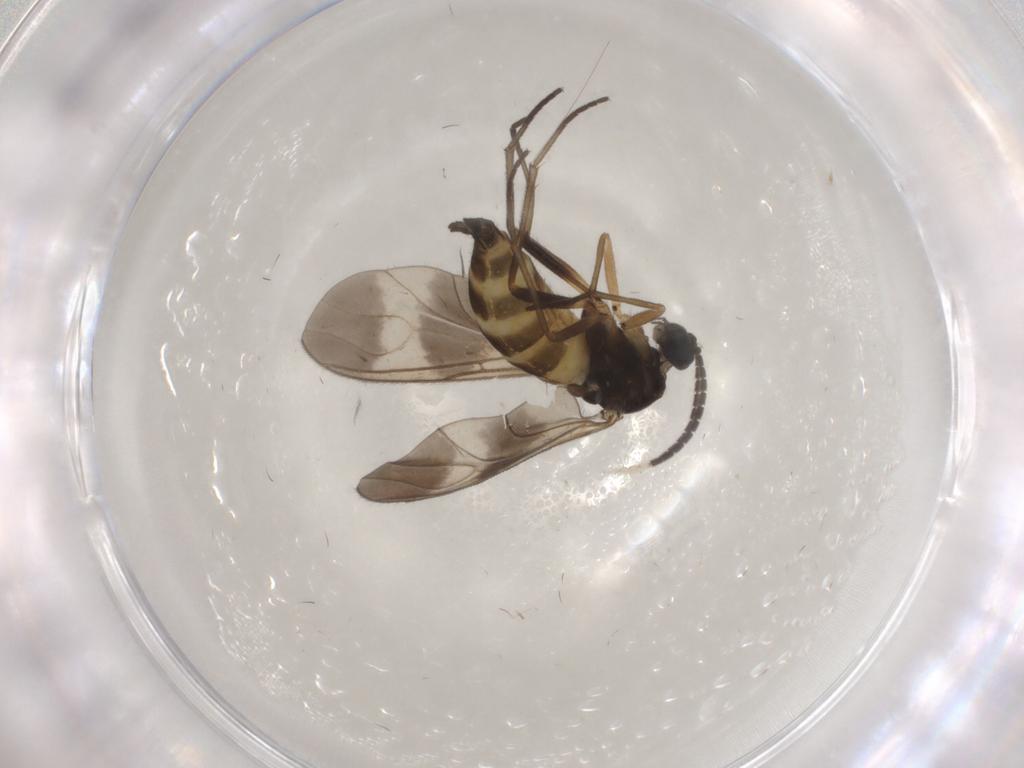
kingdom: Animalia
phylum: Arthropoda
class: Insecta
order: Diptera
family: Sciaridae
